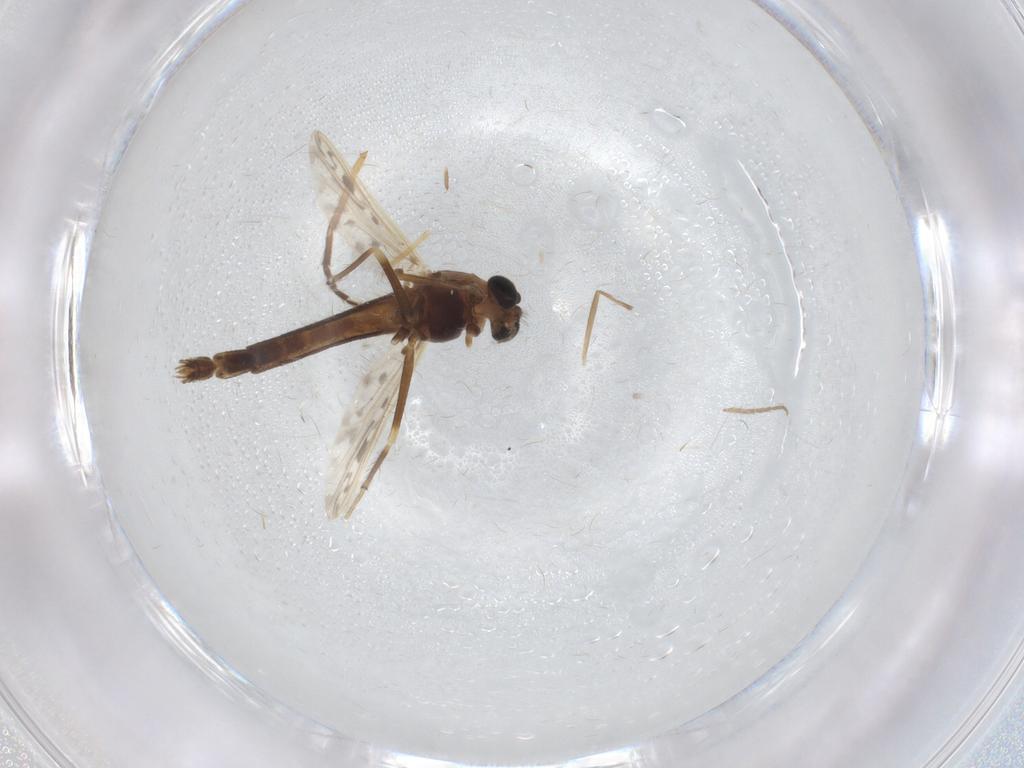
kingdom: Animalia
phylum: Arthropoda
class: Insecta
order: Diptera
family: Chironomidae
